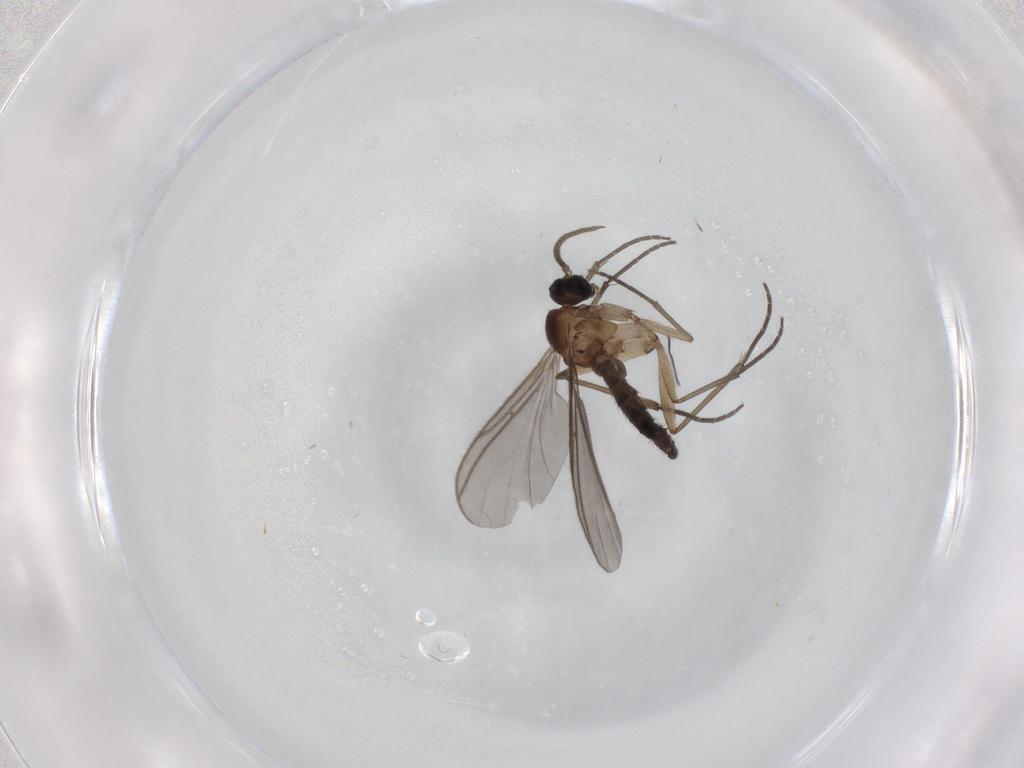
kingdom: Animalia
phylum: Arthropoda
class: Insecta
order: Diptera
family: Sciaridae
